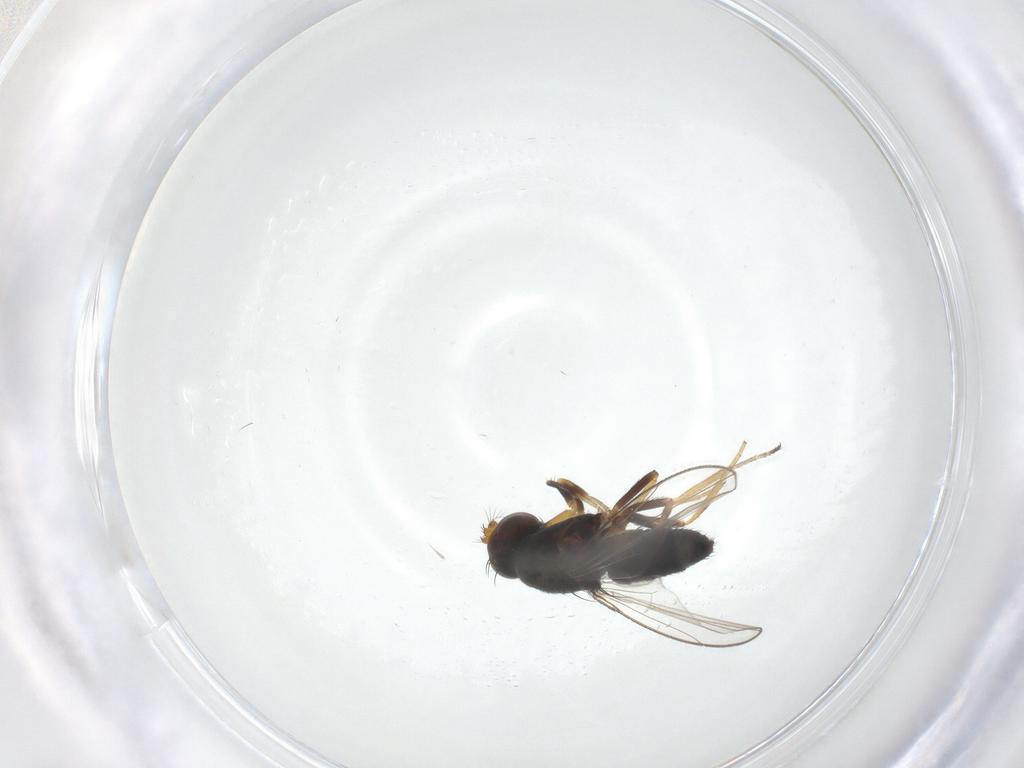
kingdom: Animalia
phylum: Arthropoda
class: Insecta
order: Diptera
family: Ephydridae
